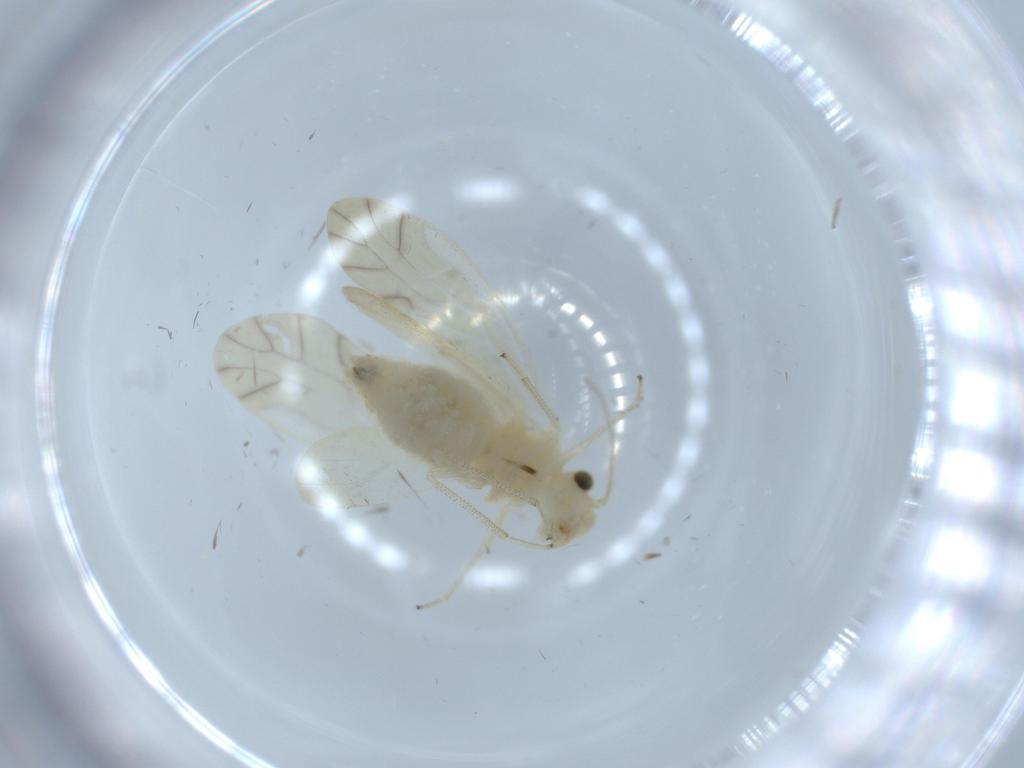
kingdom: Animalia
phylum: Arthropoda
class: Insecta
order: Psocodea
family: Caeciliusidae
